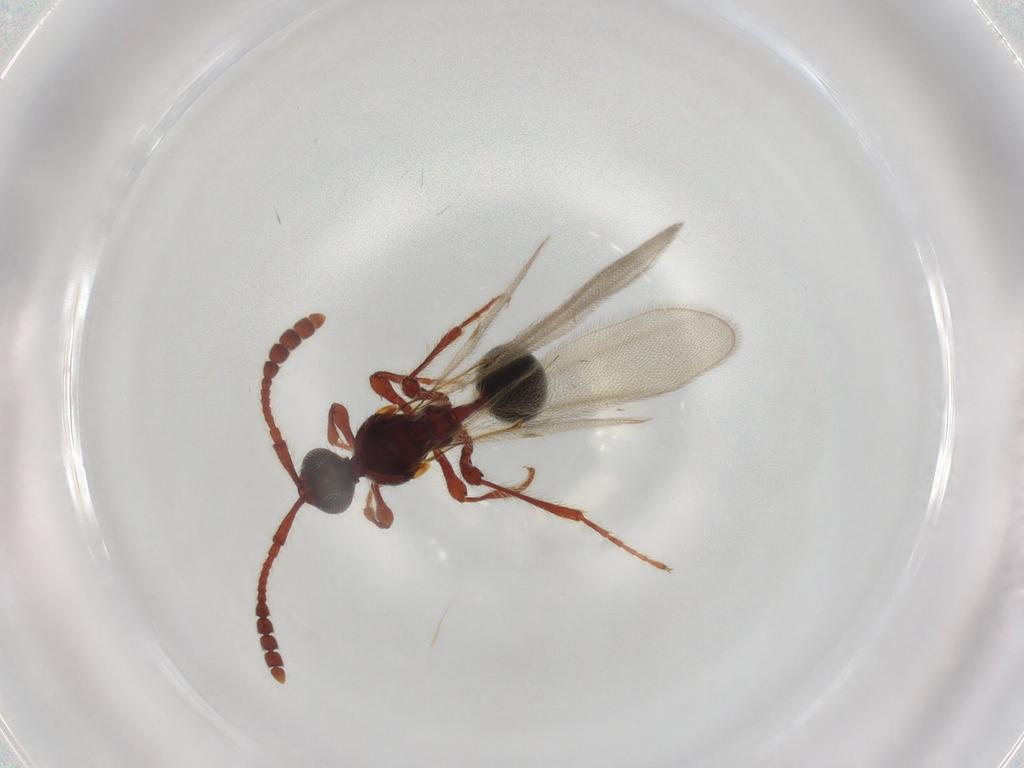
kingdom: Animalia
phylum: Arthropoda
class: Insecta
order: Hymenoptera
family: Diapriidae
